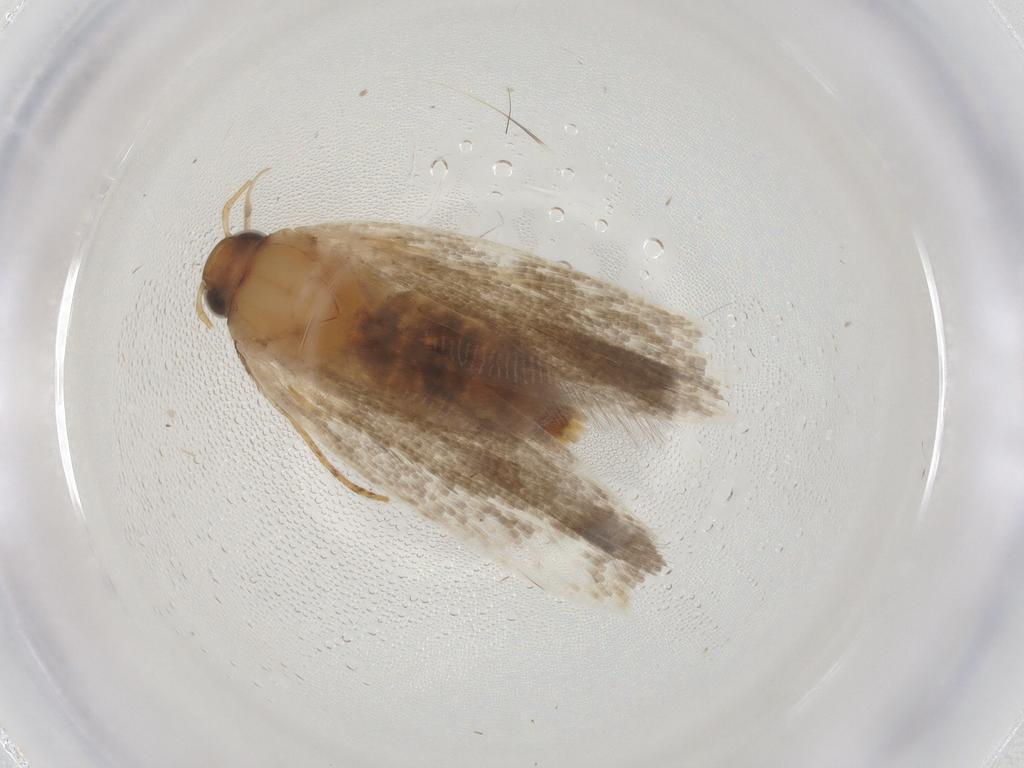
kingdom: Animalia
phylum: Arthropoda
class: Insecta
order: Lepidoptera
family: Gelechiidae
